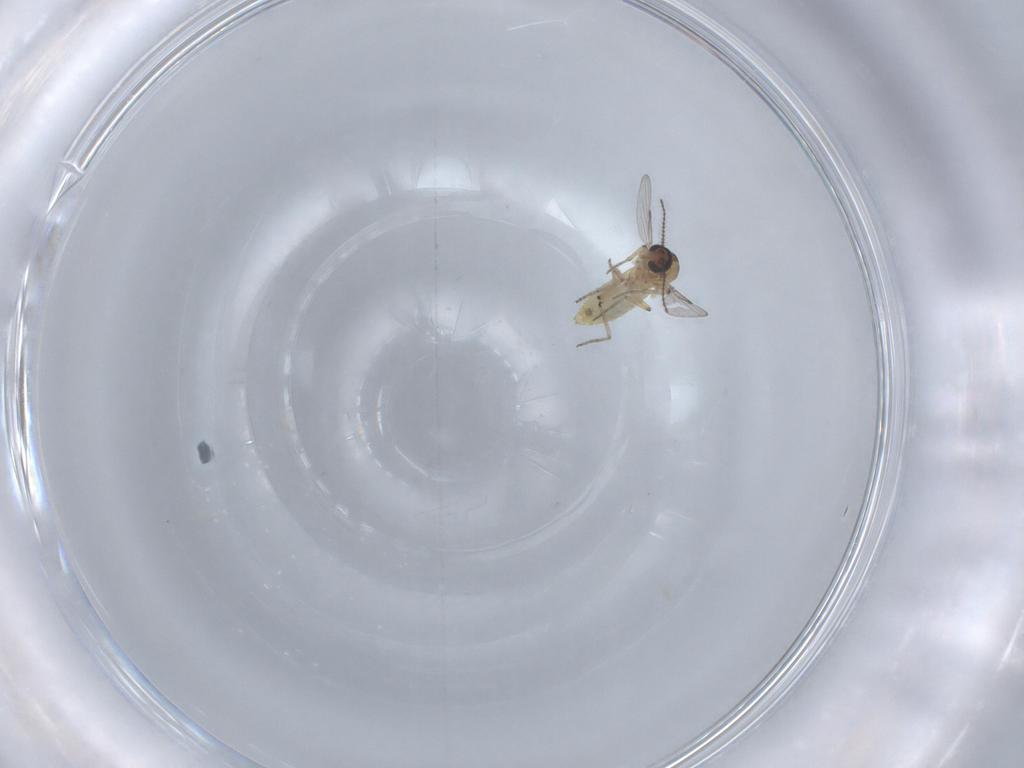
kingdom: Animalia
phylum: Arthropoda
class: Insecta
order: Diptera
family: Ceratopogonidae
